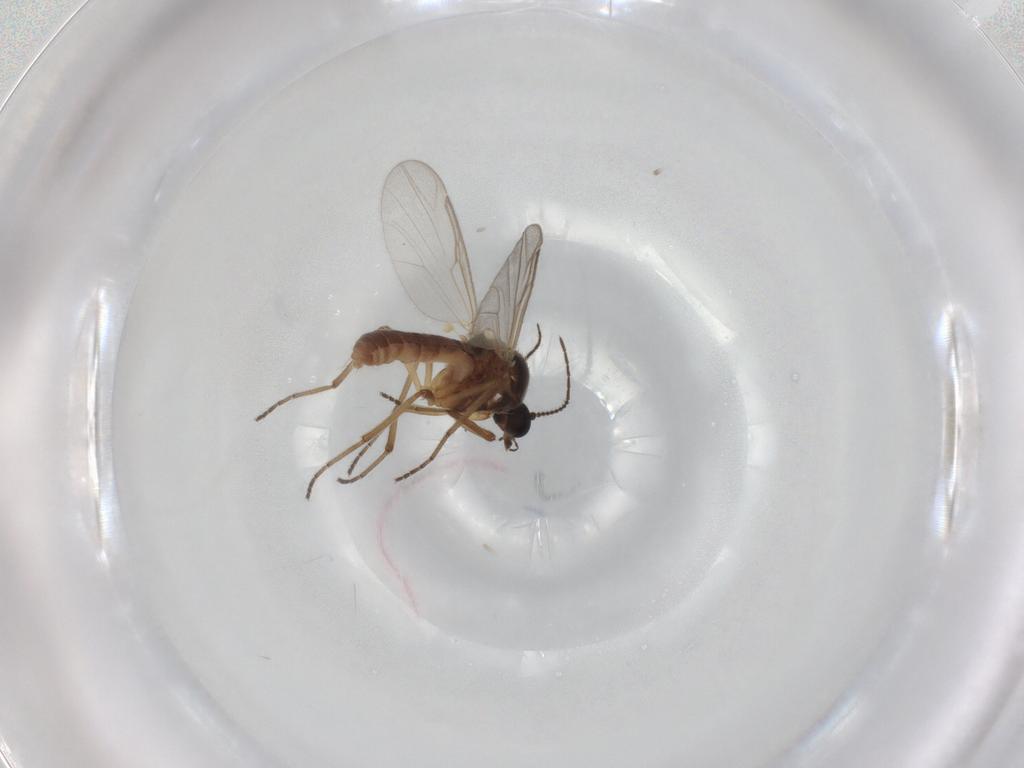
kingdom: Animalia
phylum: Arthropoda
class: Insecta
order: Diptera
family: Ceratopogonidae
